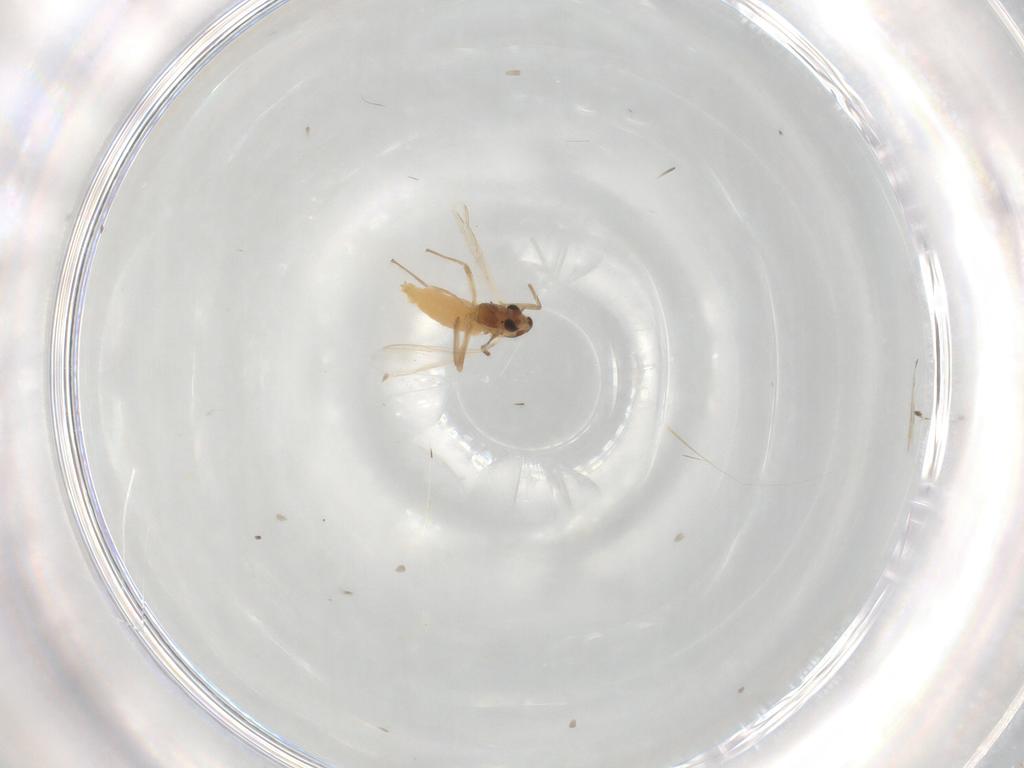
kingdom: Animalia
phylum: Arthropoda
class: Insecta
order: Diptera
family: Chironomidae
